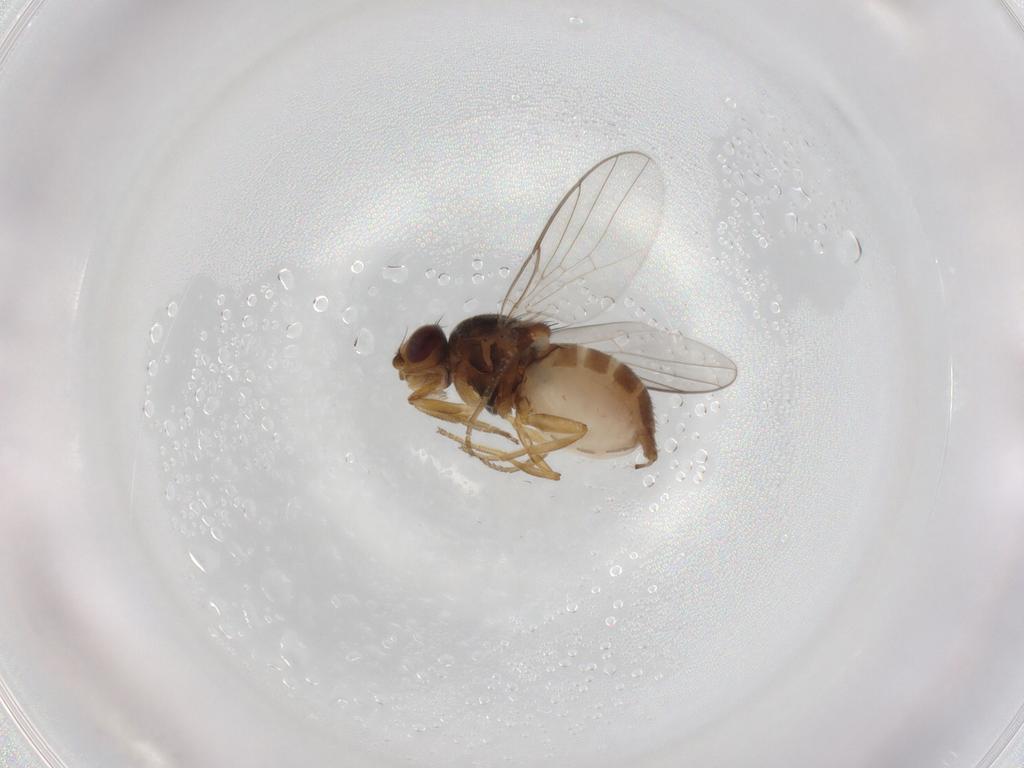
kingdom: Animalia
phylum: Arthropoda
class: Insecta
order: Diptera
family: Chloropidae
